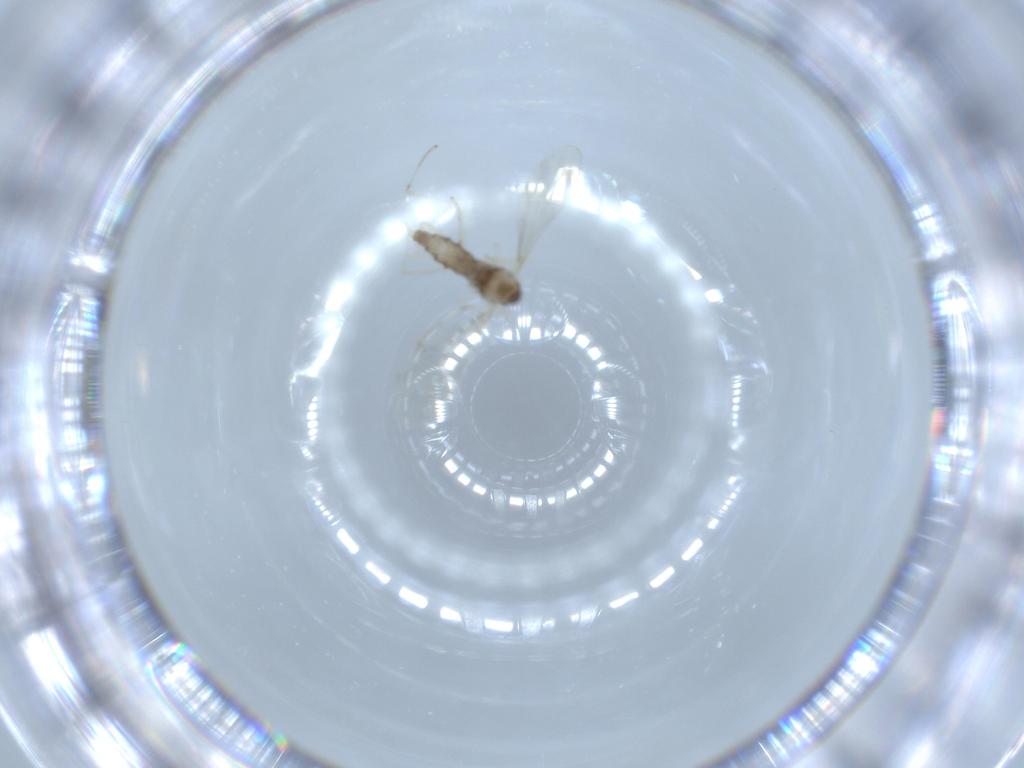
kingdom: Animalia
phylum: Arthropoda
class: Insecta
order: Diptera
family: Cecidomyiidae
